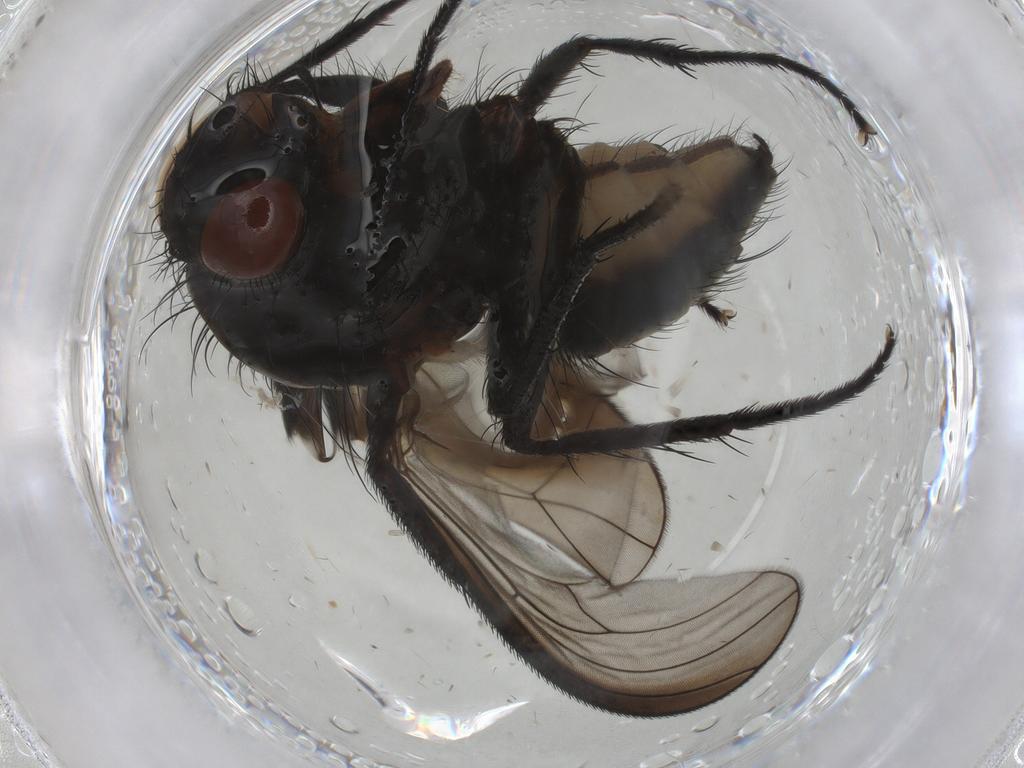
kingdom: Animalia
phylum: Arthropoda
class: Insecta
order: Diptera
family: Anthomyiidae
